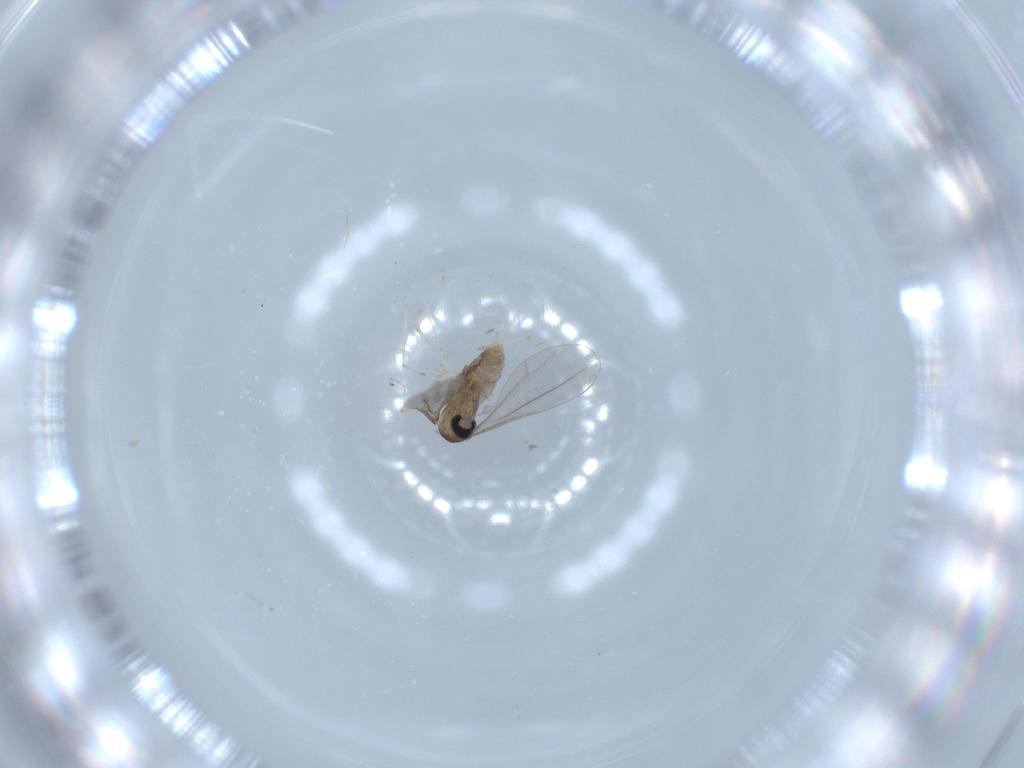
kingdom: Animalia
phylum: Arthropoda
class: Insecta
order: Diptera
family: Cecidomyiidae
